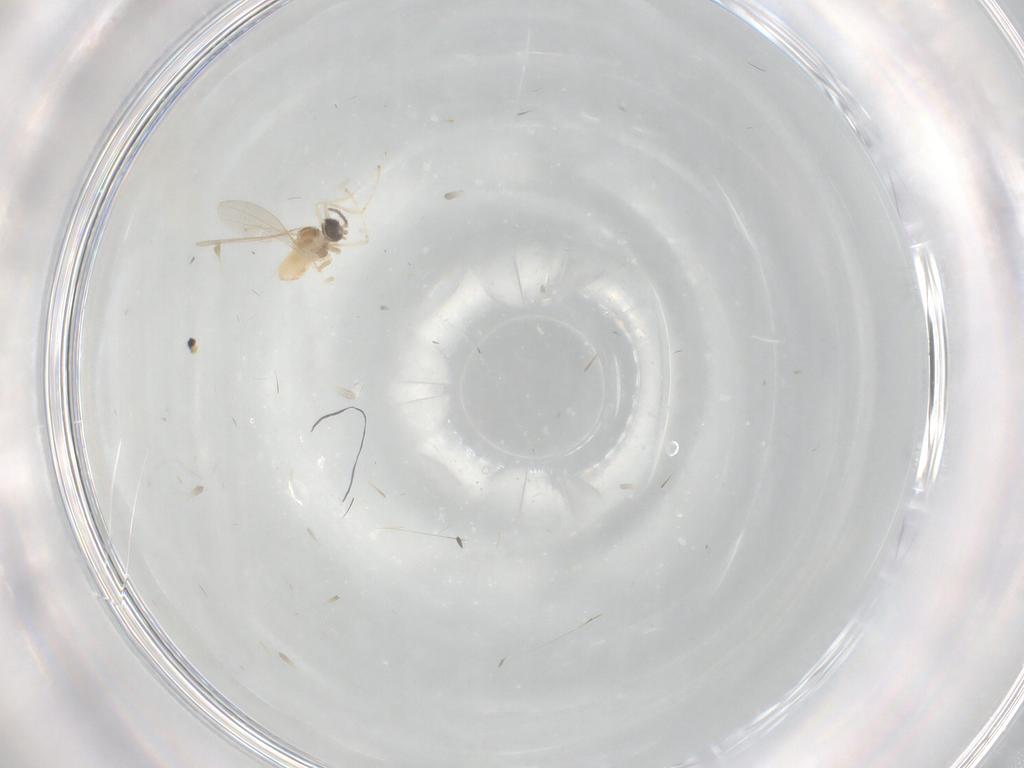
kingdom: Animalia
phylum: Arthropoda
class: Insecta
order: Diptera
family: Cecidomyiidae
